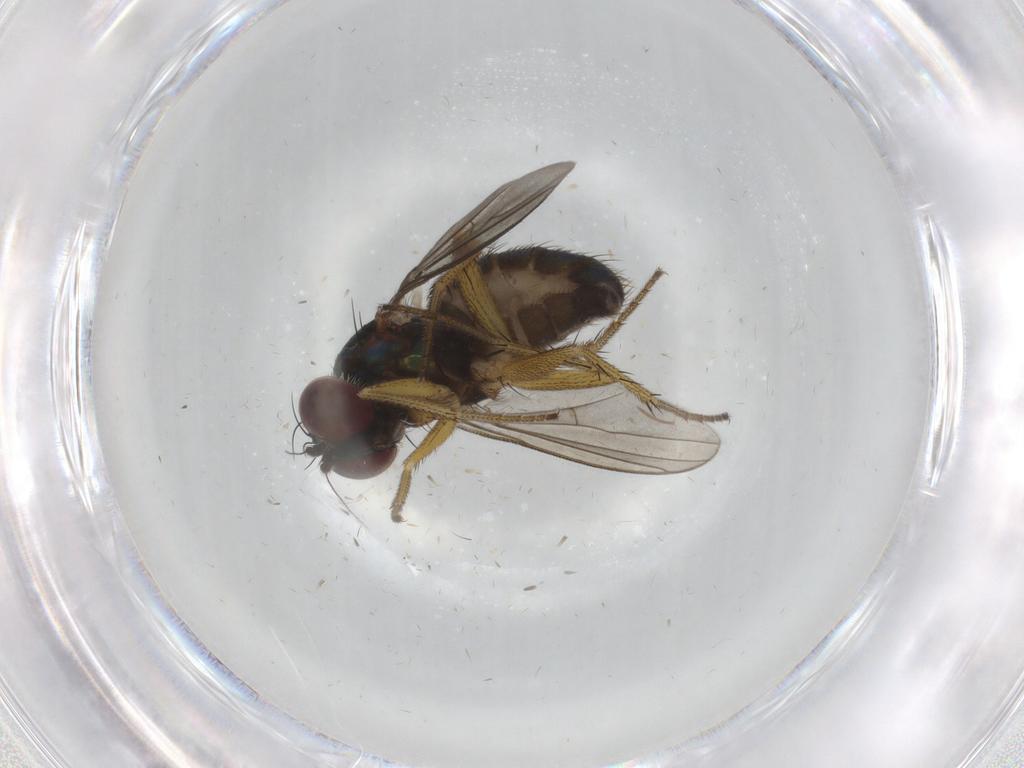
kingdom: Animalia
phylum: Arthropoda
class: Insecta
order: Diptera
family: Dolichopodidae
